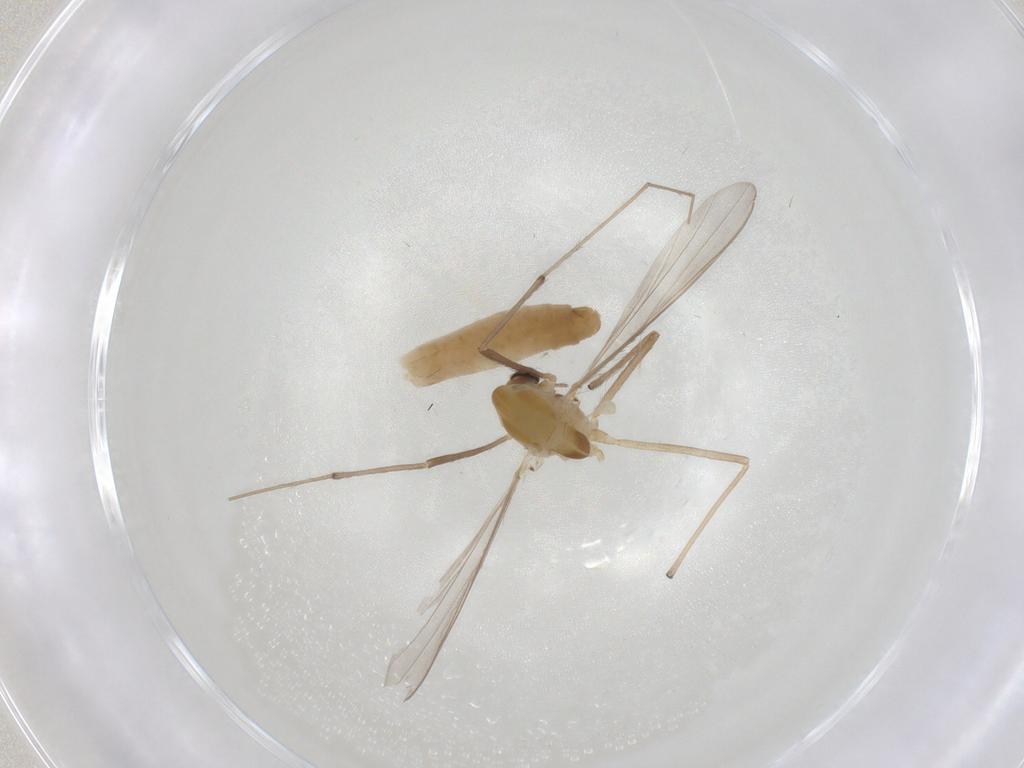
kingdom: Animalia
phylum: Arthropoda
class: Insecta
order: Diptera
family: Chironomidae
